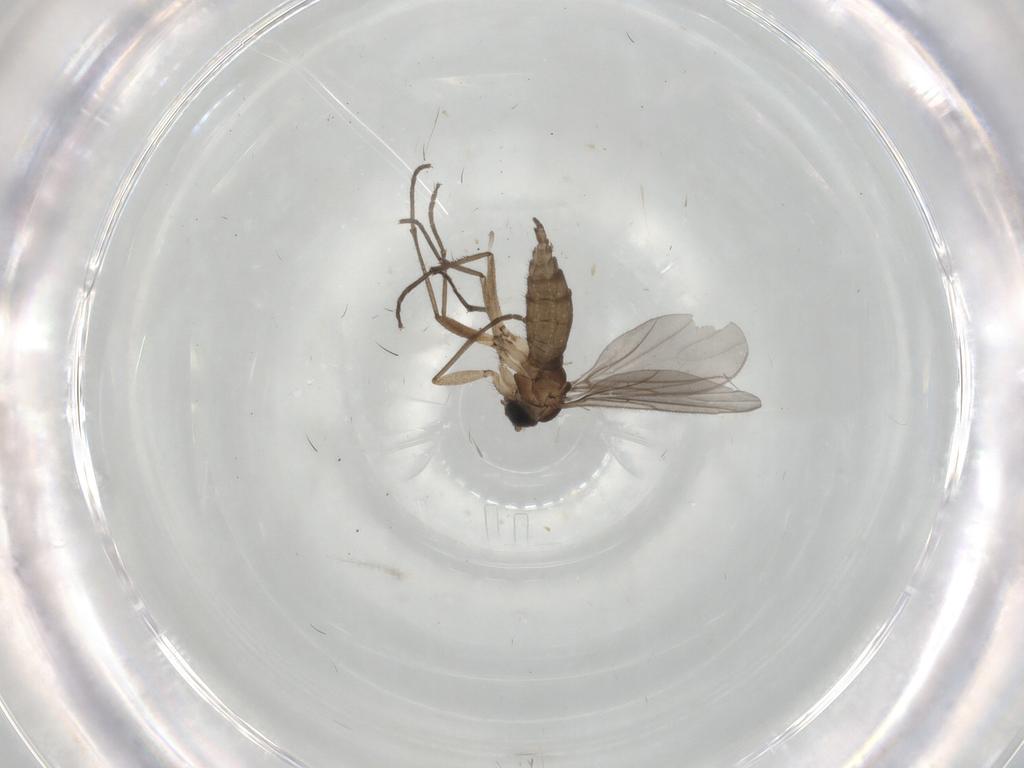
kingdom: Animalia
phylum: Arthropoda
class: Insecta
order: Diptera
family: Sciaridae
